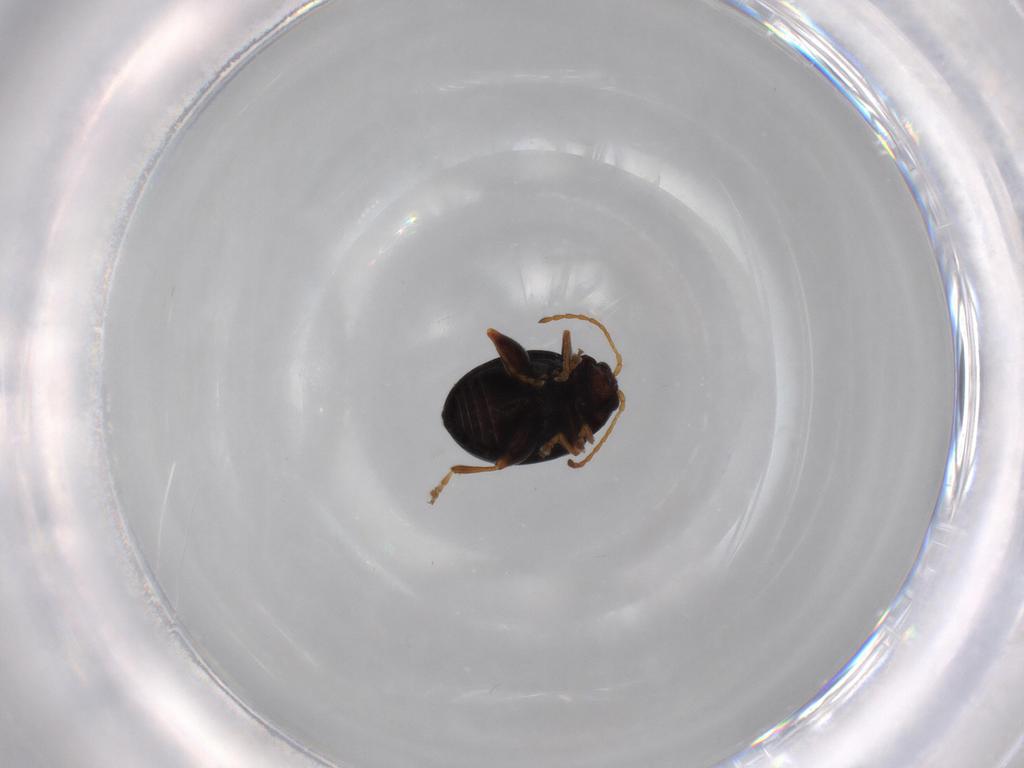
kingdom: Animalia
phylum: Arthropoda
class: Insecta
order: Coleoptera
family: Chrysomelidae
